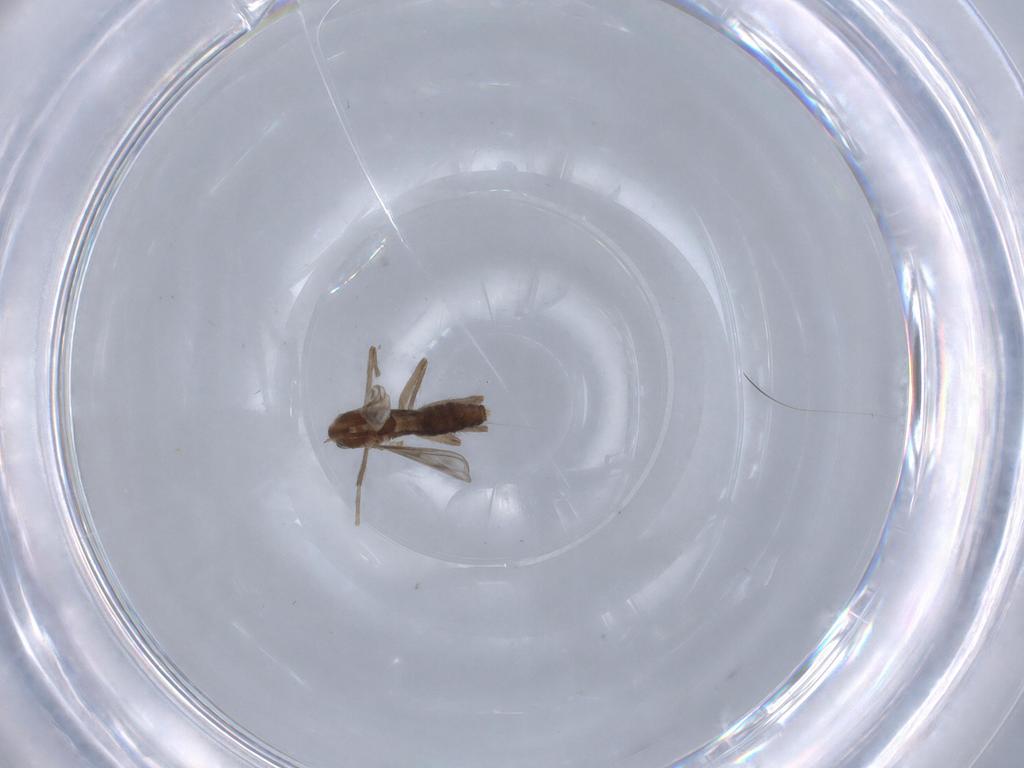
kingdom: Animalia
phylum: Arthropoda
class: Insecta
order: Diptera
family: Chironomidae
